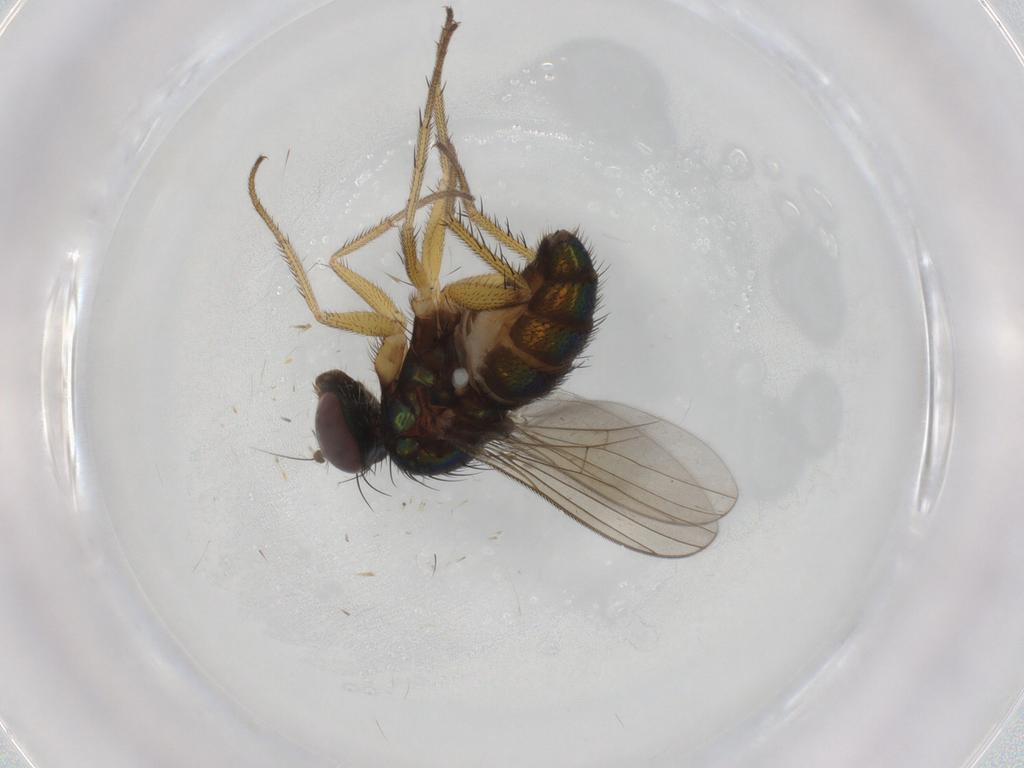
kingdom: Animalia
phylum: Arthropoda
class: Insecta
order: Diptera
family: Dolichopodidae
